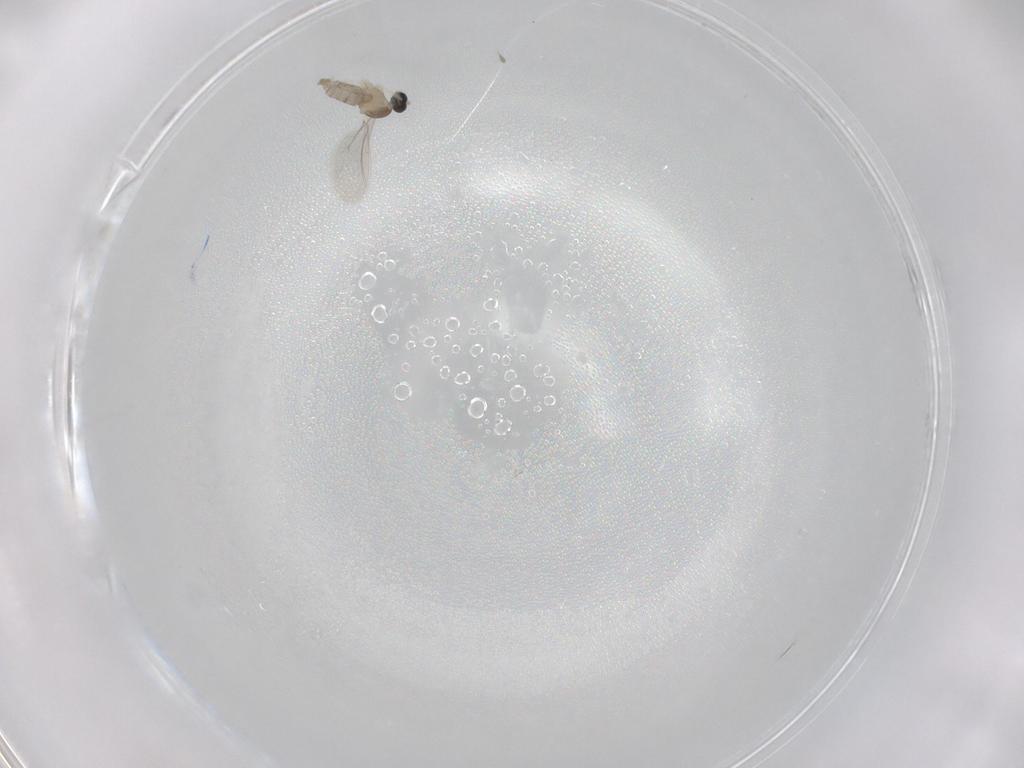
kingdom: Animalia
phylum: Arthropoda
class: Insecta
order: Diptera
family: Cecidomyiidae
